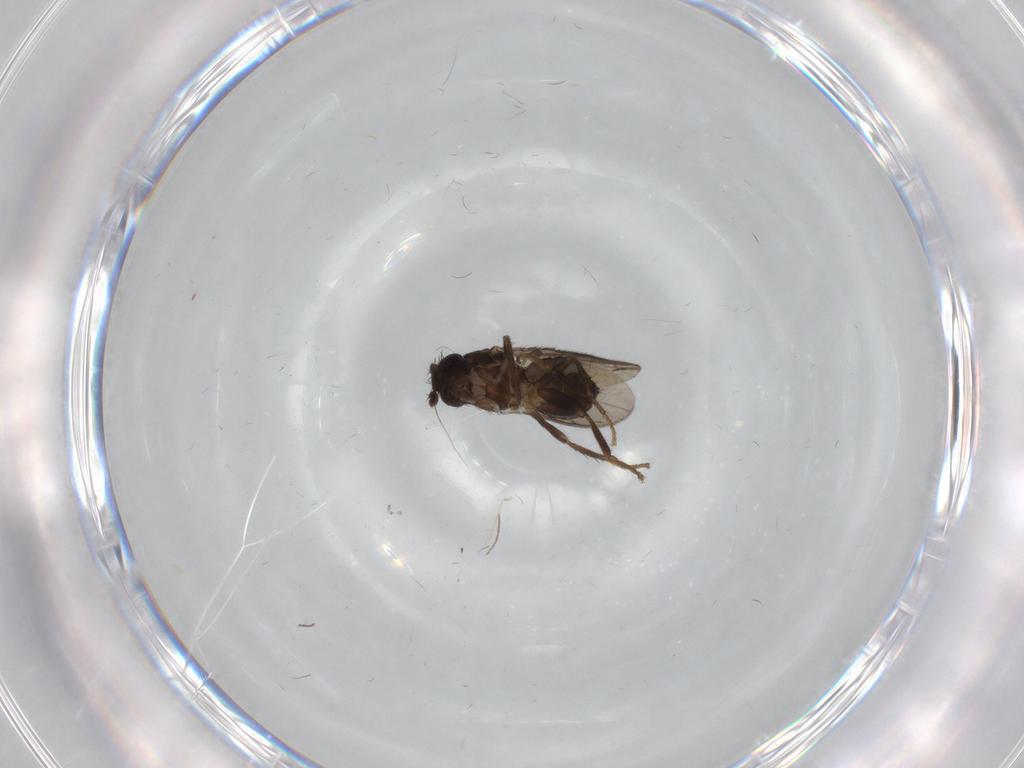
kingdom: Animalia
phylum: Arthropoda
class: Insecta
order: Diptera
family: Sphaeroceridae
